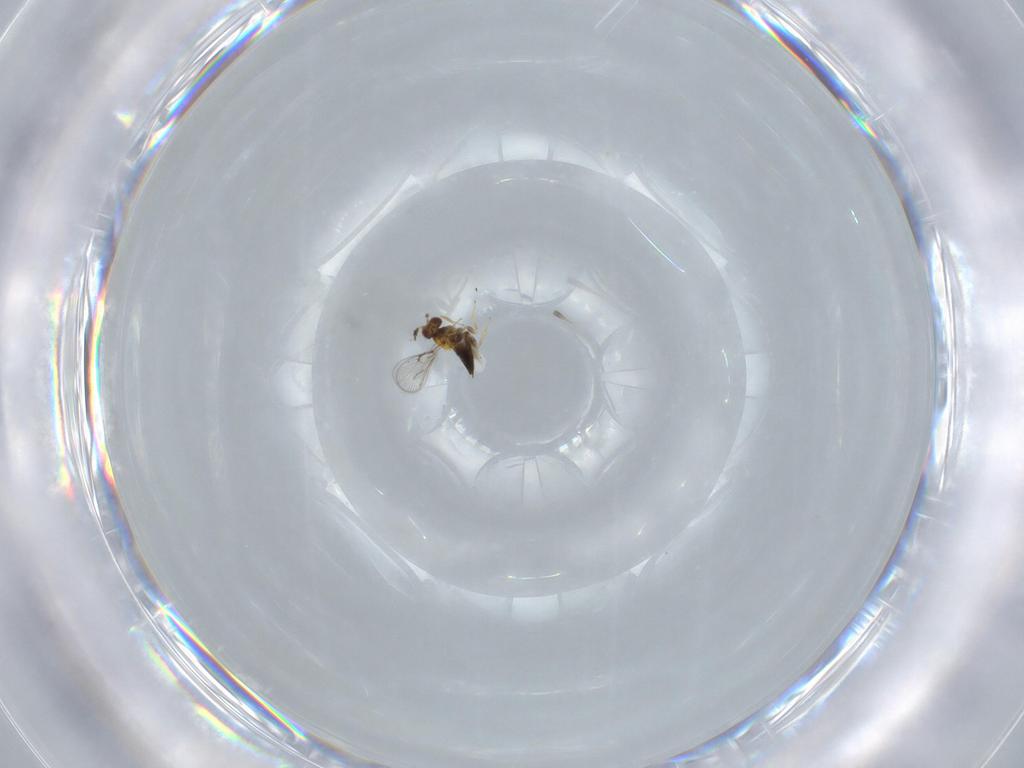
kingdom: Animalia
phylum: Arthropoda
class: Insecta
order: Hymenoptera
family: Trichogrammatidae
